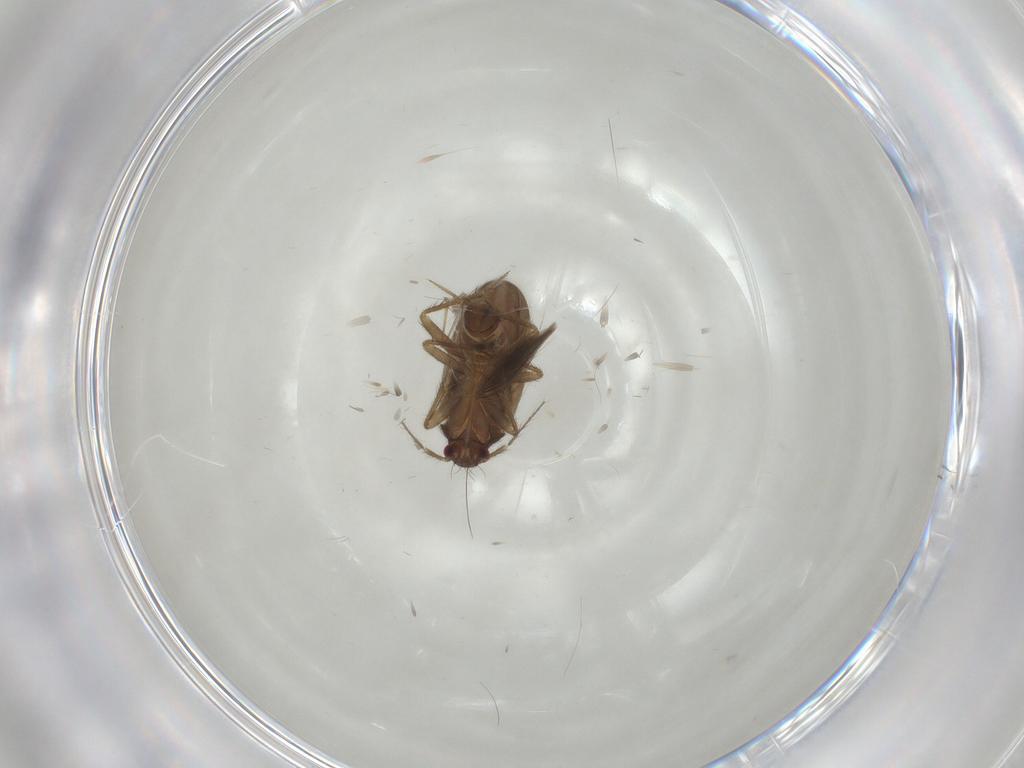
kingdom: Animalia
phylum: Arthropoda
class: Insecta
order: Hemiptera
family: Ceratocombidae
